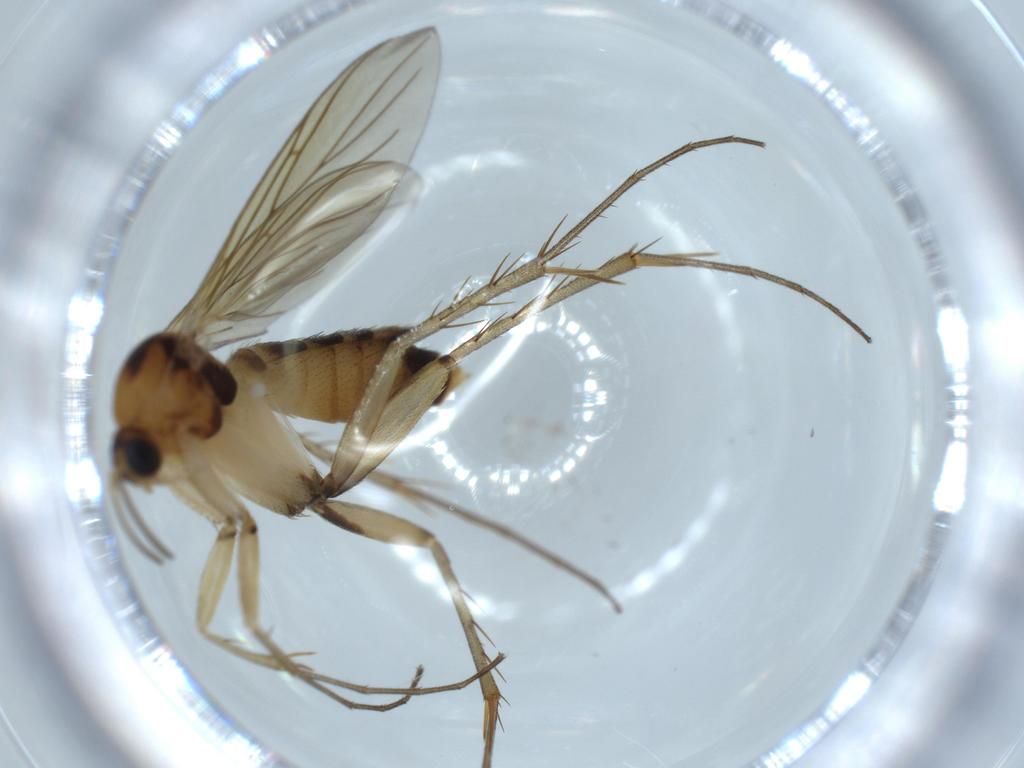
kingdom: Animalia
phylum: Arthropoda
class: Insecta
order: Diptera
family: Mycetophilidae
